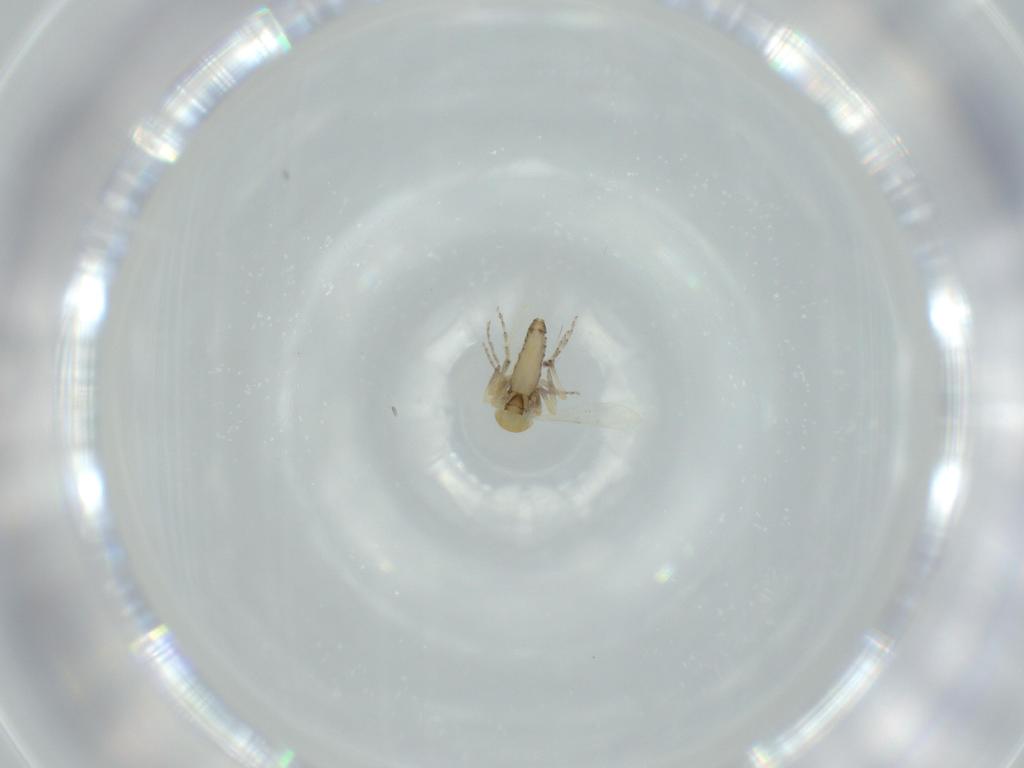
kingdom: Animalia
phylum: Arthropoda
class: Insecta
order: Diptera
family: Ceratopogonidae
